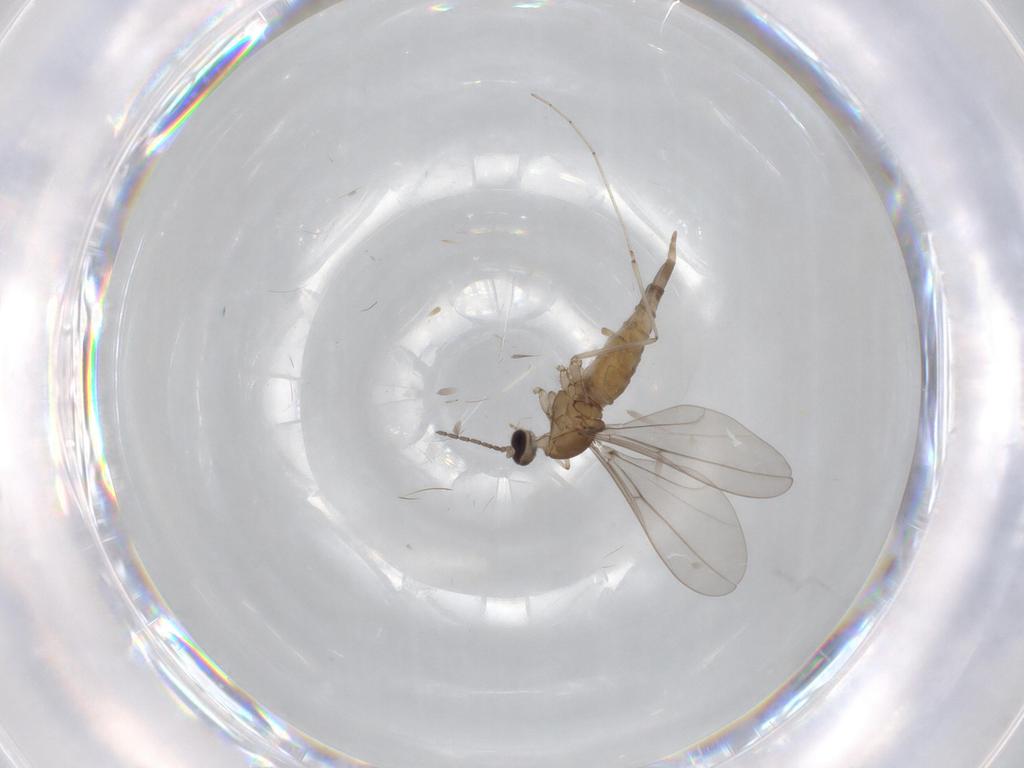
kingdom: Animalia
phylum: Arthropoda
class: Insecta
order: Diptera
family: Cecidomyiidae
